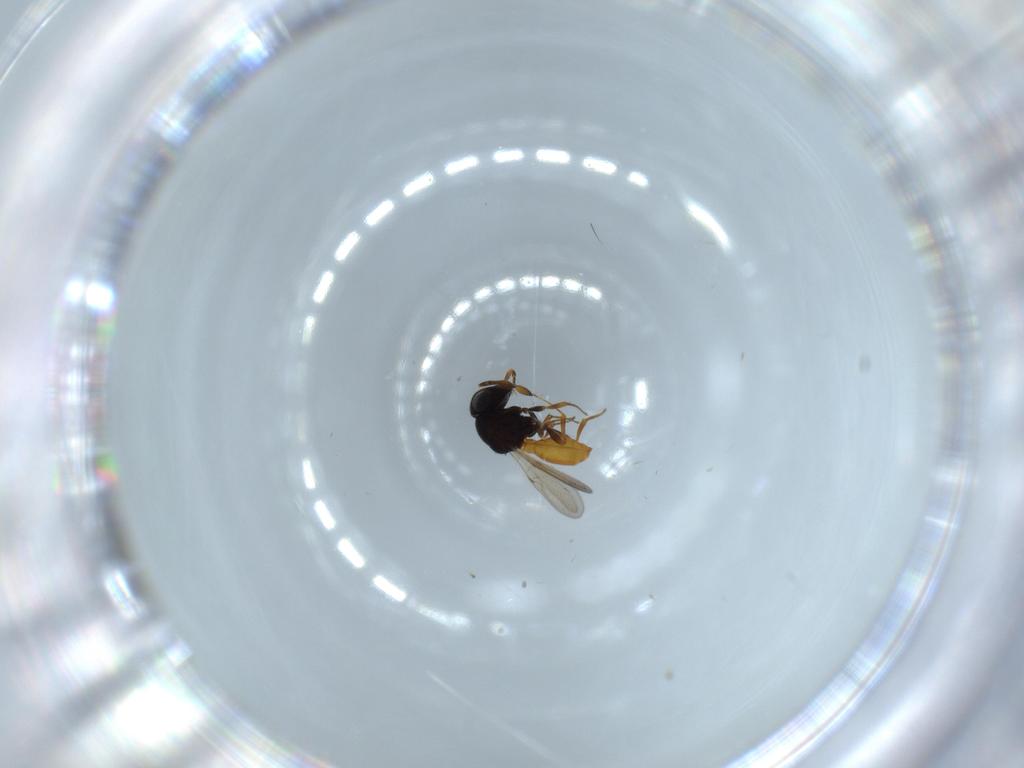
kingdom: Animalia
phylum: Arthropoda
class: Insecta
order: Hymenoptera
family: Scelionidae
